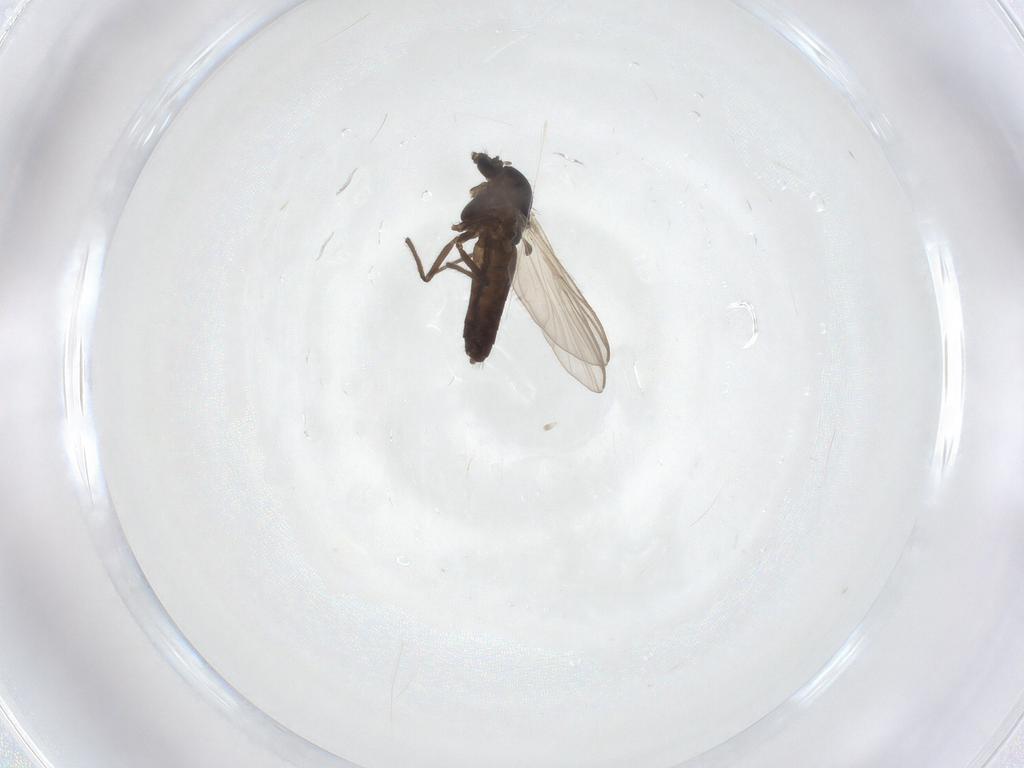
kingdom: Animalia
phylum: Arthropoda
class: Insecta
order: Diptera
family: Chironomidae
